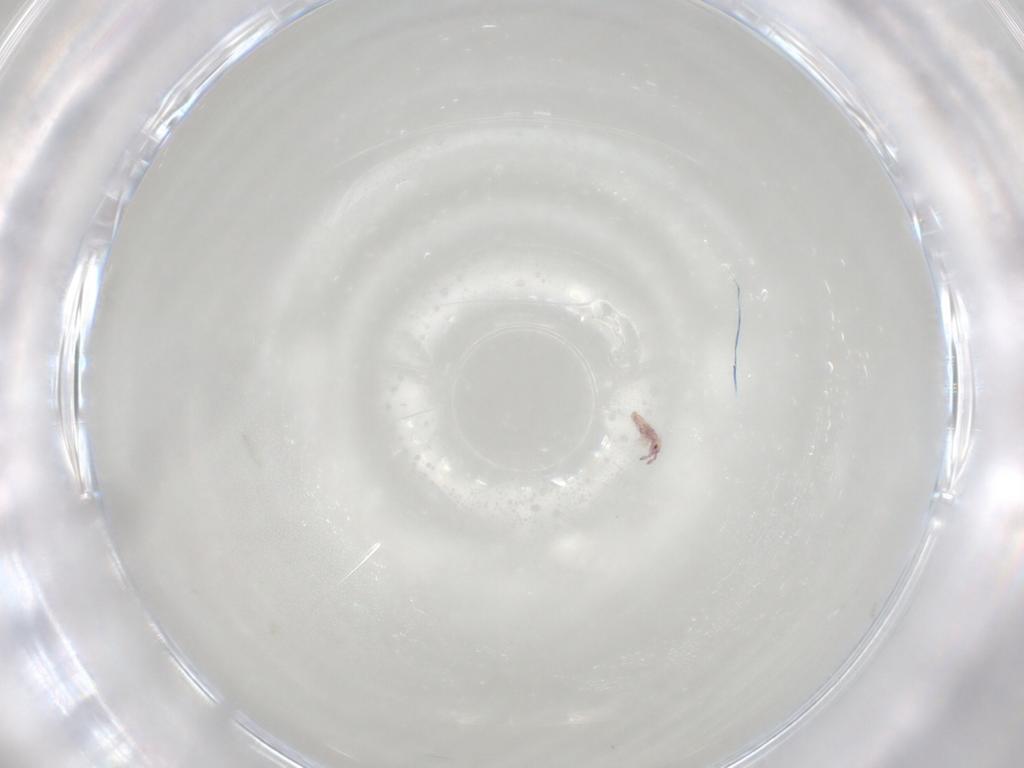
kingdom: Animalia
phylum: Arthropoda
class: Collembola
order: Entomobryomorpha
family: Entomobryidae
